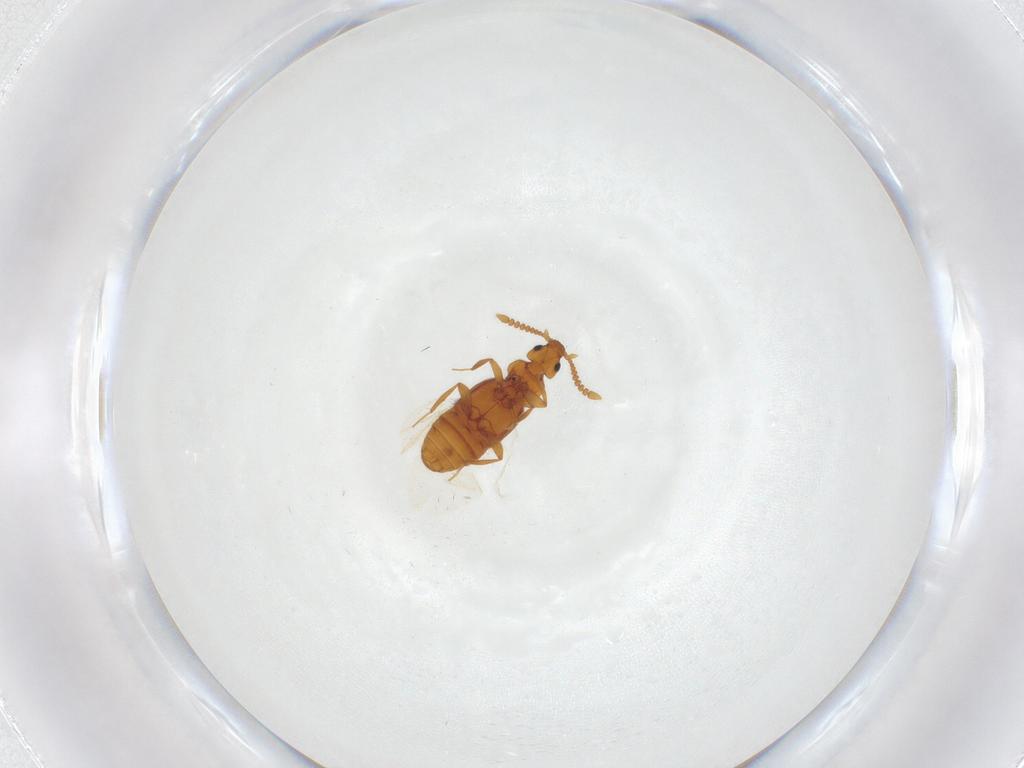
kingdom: Animalia
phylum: Arthropoda
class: Insecta
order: Coleoptera
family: Chrysomelidae
